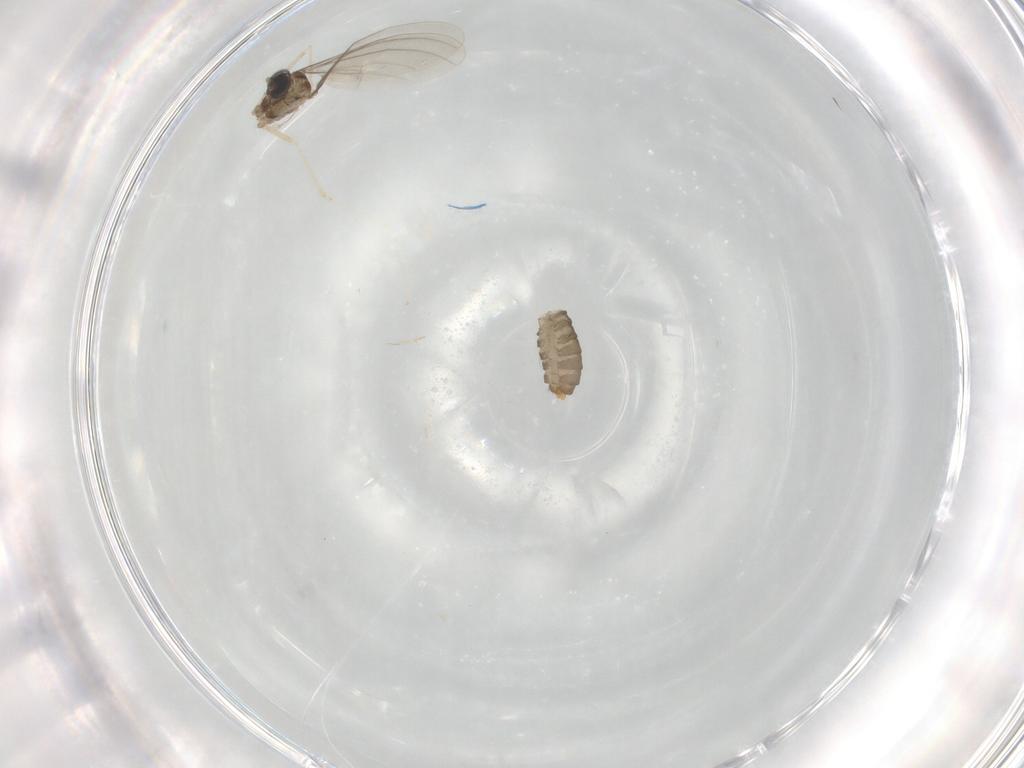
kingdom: Animalia
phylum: Arthropoda
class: Insecta
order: Diptera
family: Cecidomyiidae
